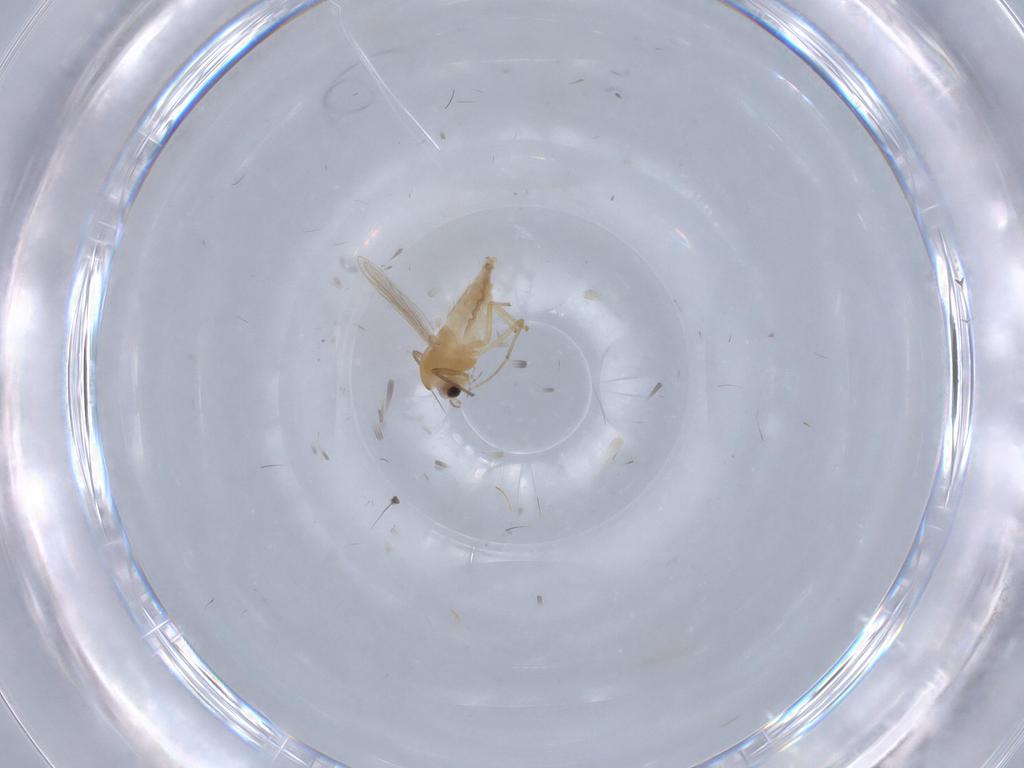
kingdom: Animalia
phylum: Arthropoda
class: Insecta
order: Diptera
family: Chironomidae
